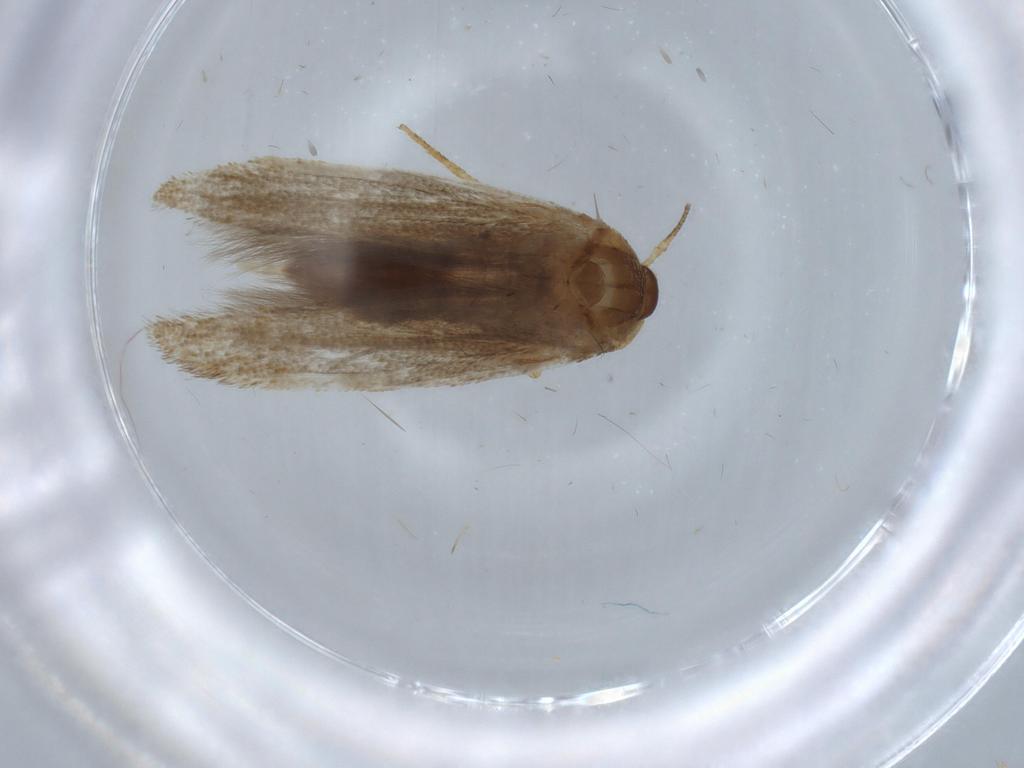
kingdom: Animalia
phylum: Arthropoda
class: Insecta
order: Lepidoptera
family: Blastobasidae
